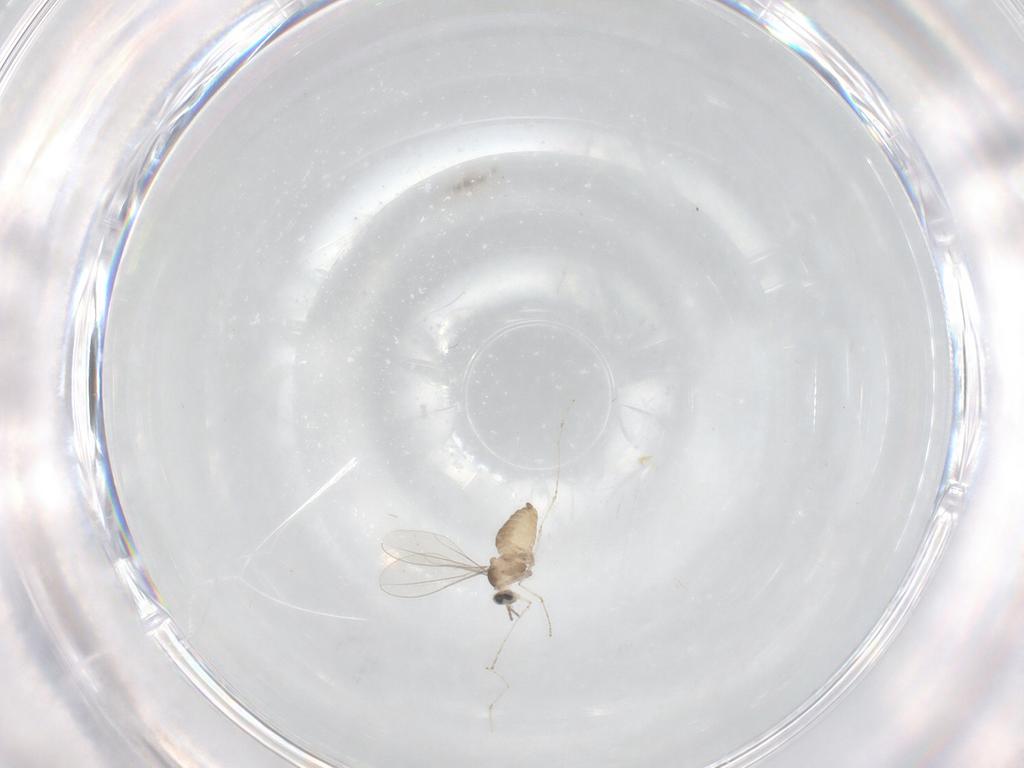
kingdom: Animalia
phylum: Arthropoda
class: Insecta
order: Diptera
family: Cecidomyiidae
